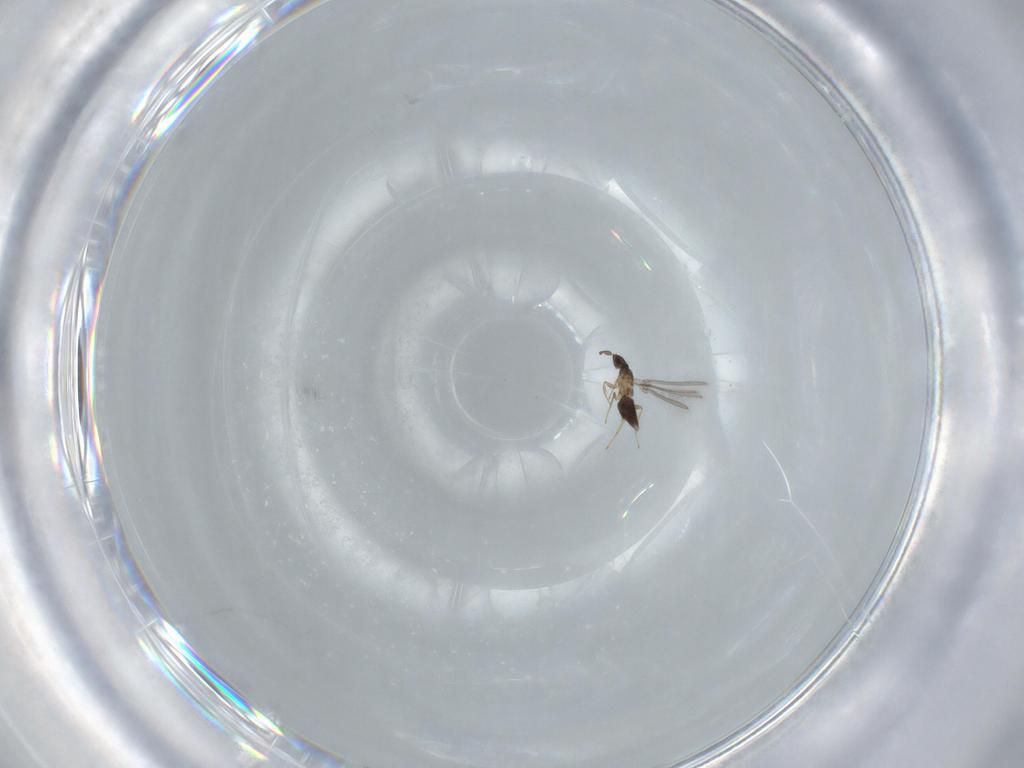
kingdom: Animalia
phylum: Arthropoda
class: Insecta
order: Hymenoptera
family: Mymaridae
